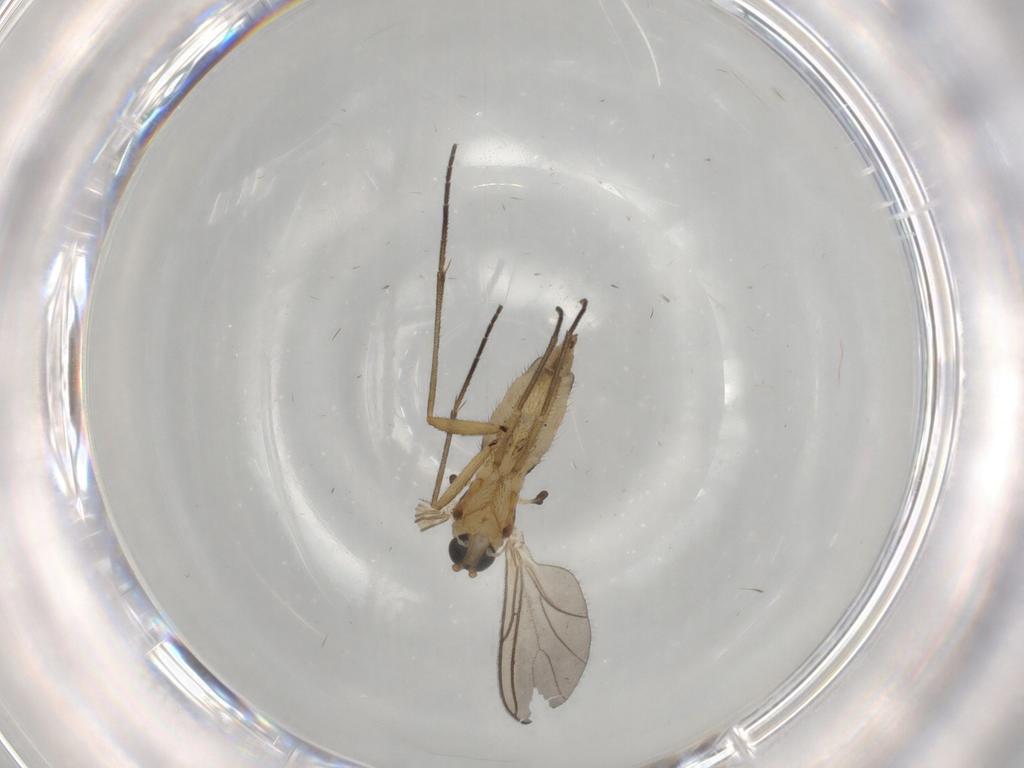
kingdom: Animalia
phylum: Arthropoda
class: Insecta
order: Diptera
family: Sciaridae
